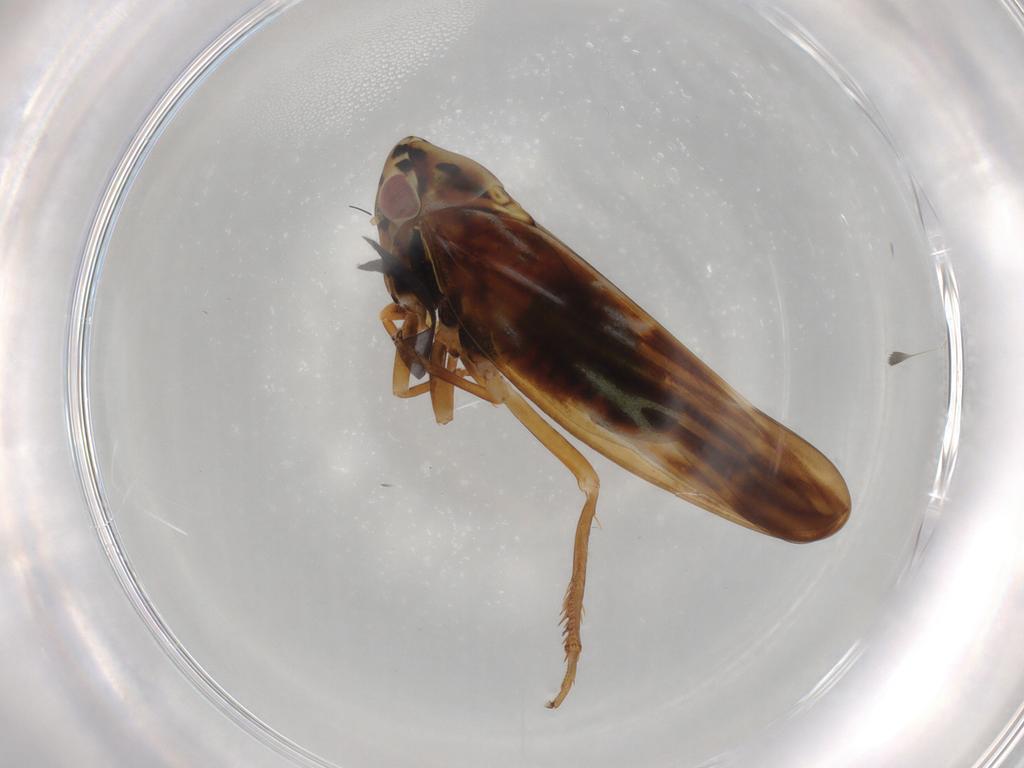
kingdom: Animalia
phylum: Arthropoda
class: Insecta
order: Hemiptera
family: Cicadellidae
